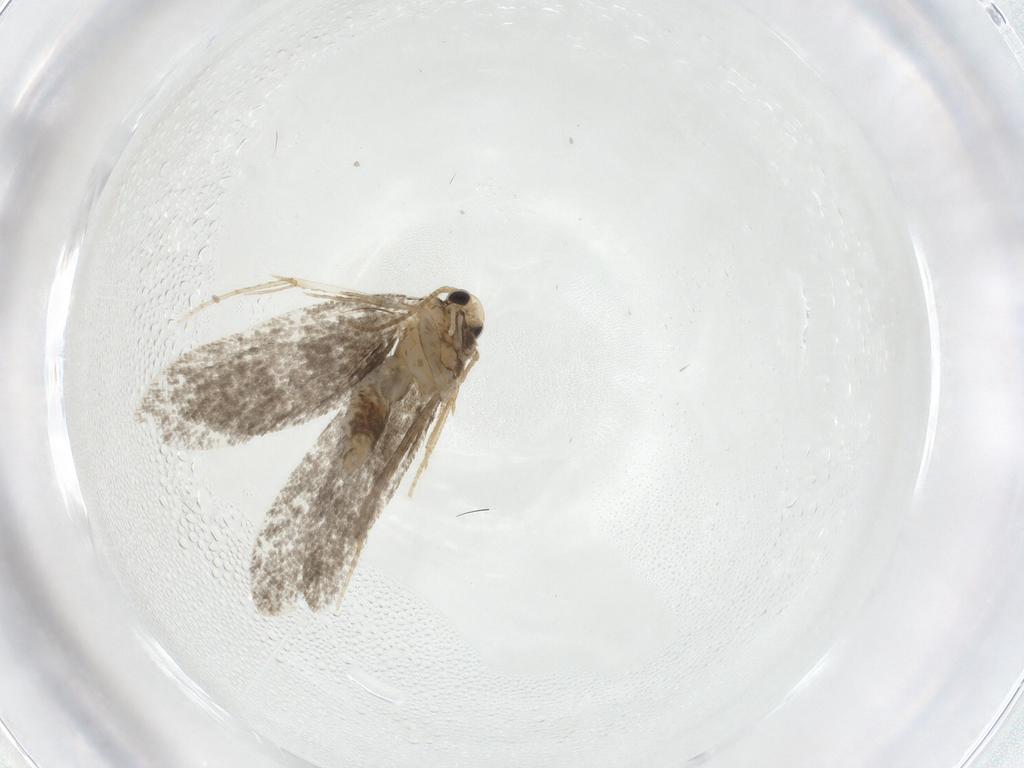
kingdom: Animalia
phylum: Arthropoda
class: Insecta
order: Lepidoptera
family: Psychidae
